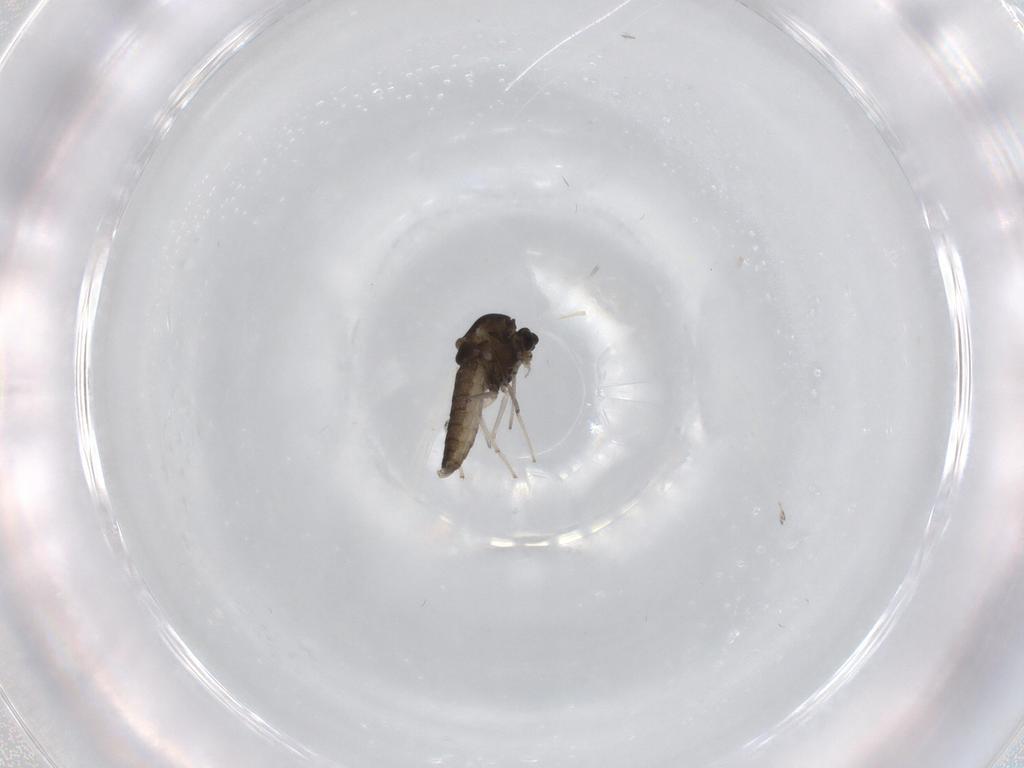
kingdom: Animalia
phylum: Arthropoda
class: Insecta
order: Diptera
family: Chironomidae
